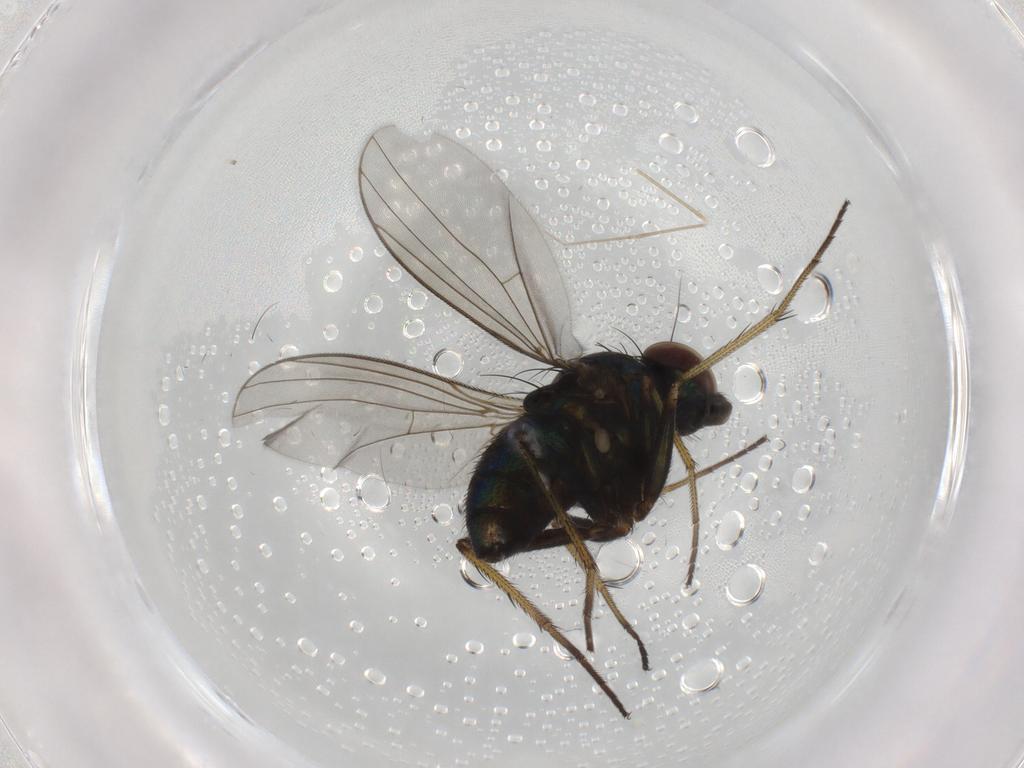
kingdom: Animalia
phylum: Arthropoda
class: Insecta
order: Diptera
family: Dolichopodidae
